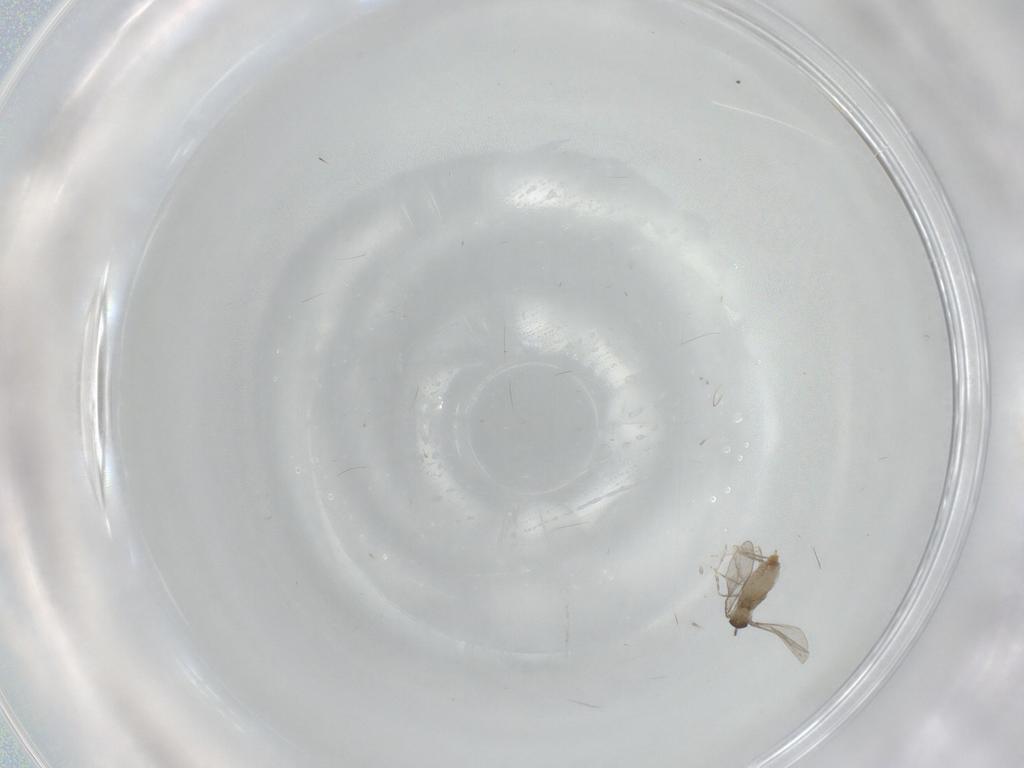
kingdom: Animalia
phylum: Arthropoda
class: Insecta
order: Diptera
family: Cecidomyiidae
